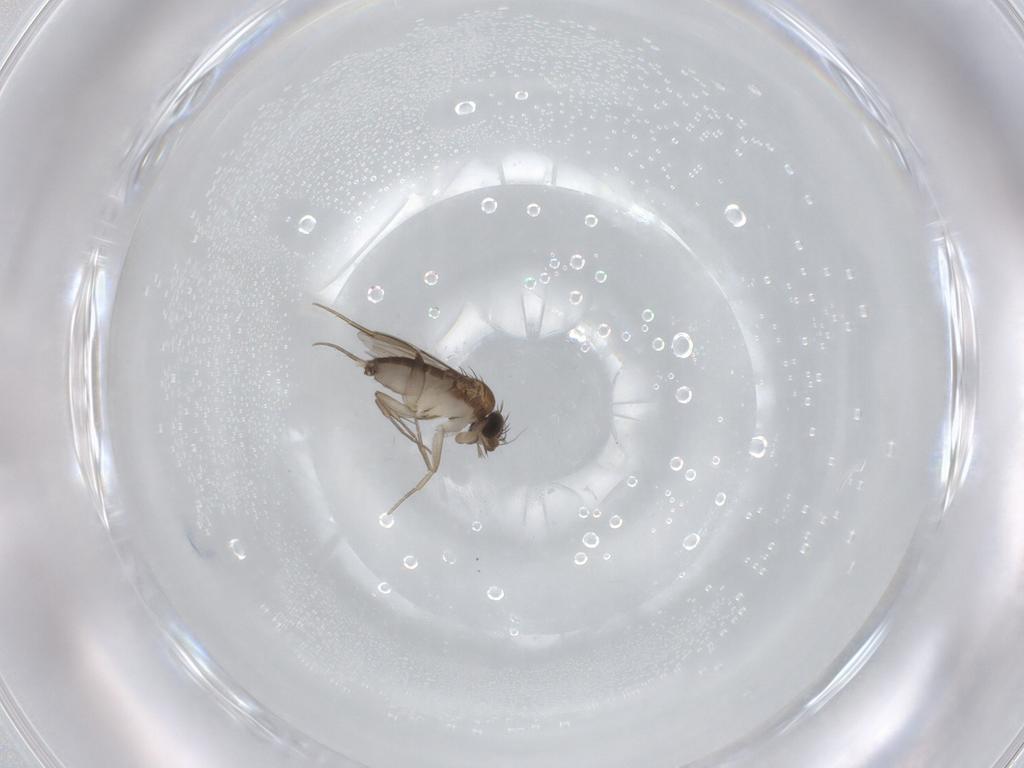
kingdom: Animalia
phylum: Arthropoda
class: Insecta
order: Diptera
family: Phoridae
